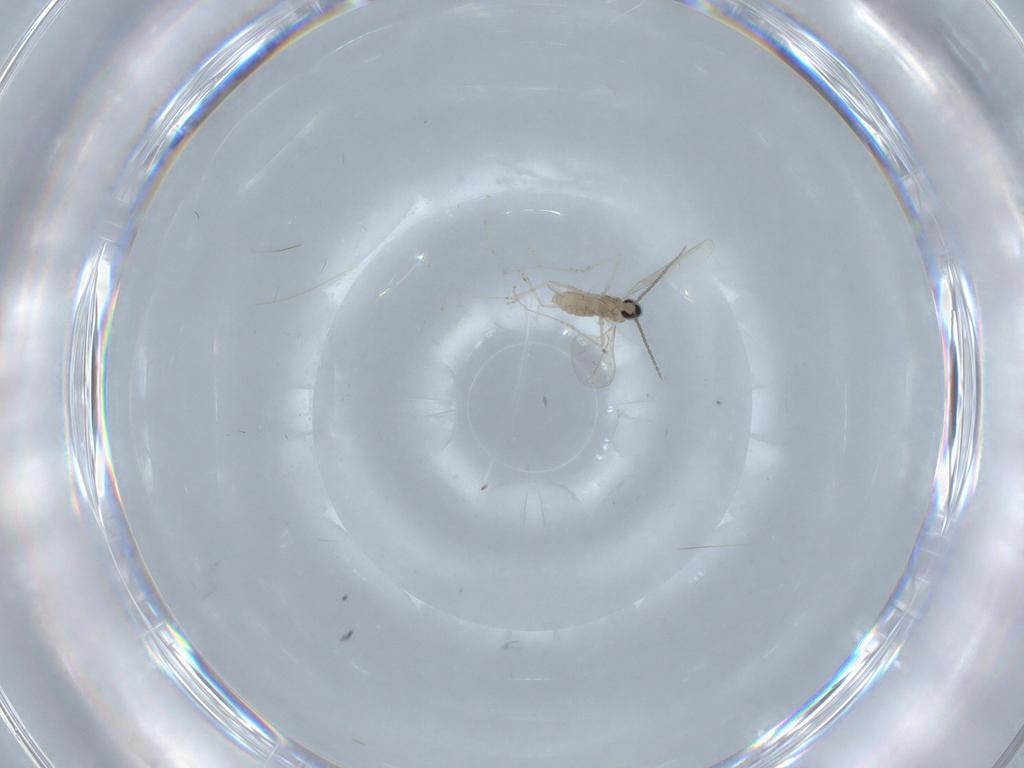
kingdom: Animalia
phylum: Arthropoda
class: Insecta
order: Diptera
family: Cecidomyiidae
